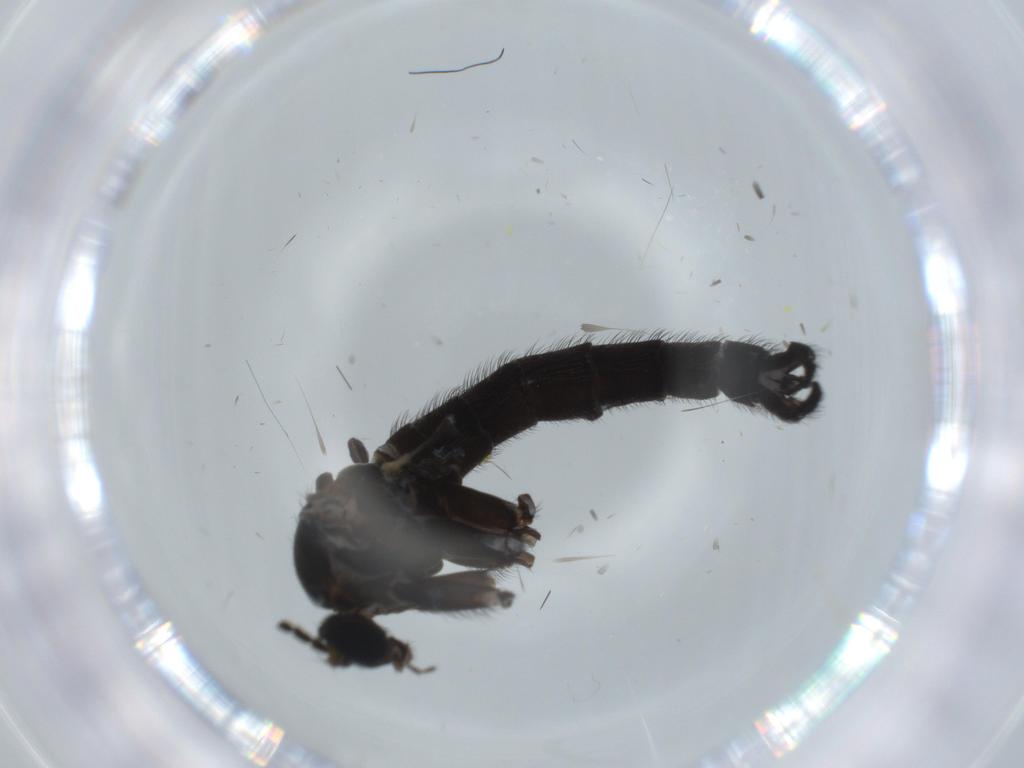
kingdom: Animalia
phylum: Arthropoda
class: Insecta
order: Diptera
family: Sciaridae
